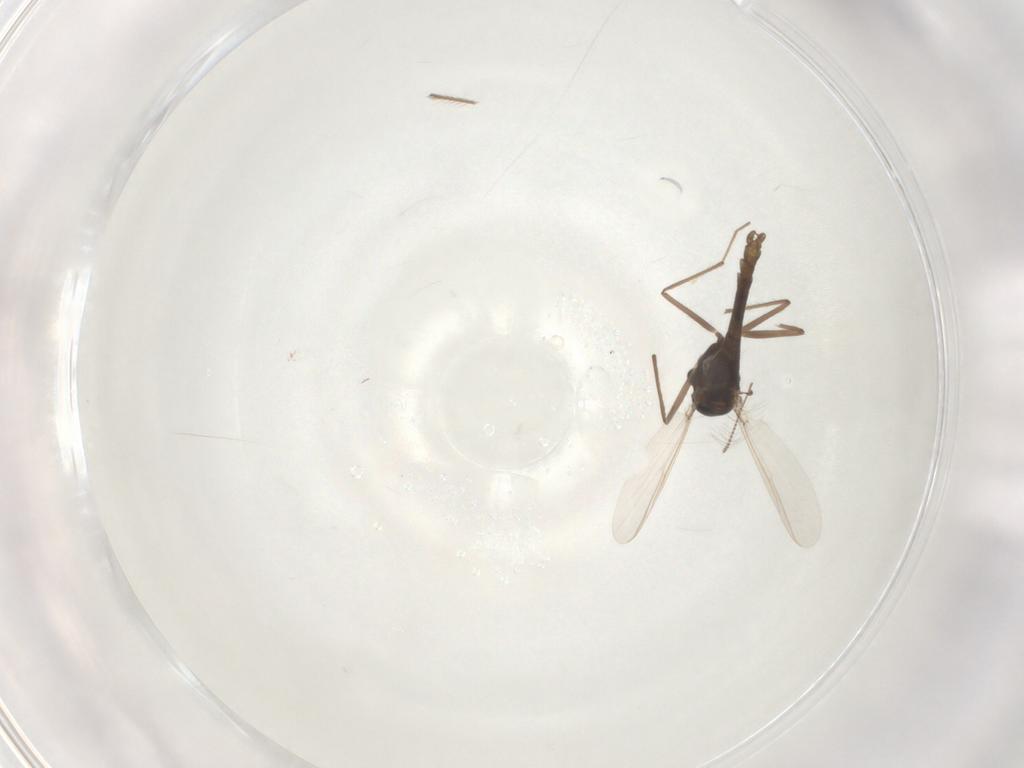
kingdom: Animalia
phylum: Arthropoda
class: Insecta
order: Diptera
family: Chironomidae
